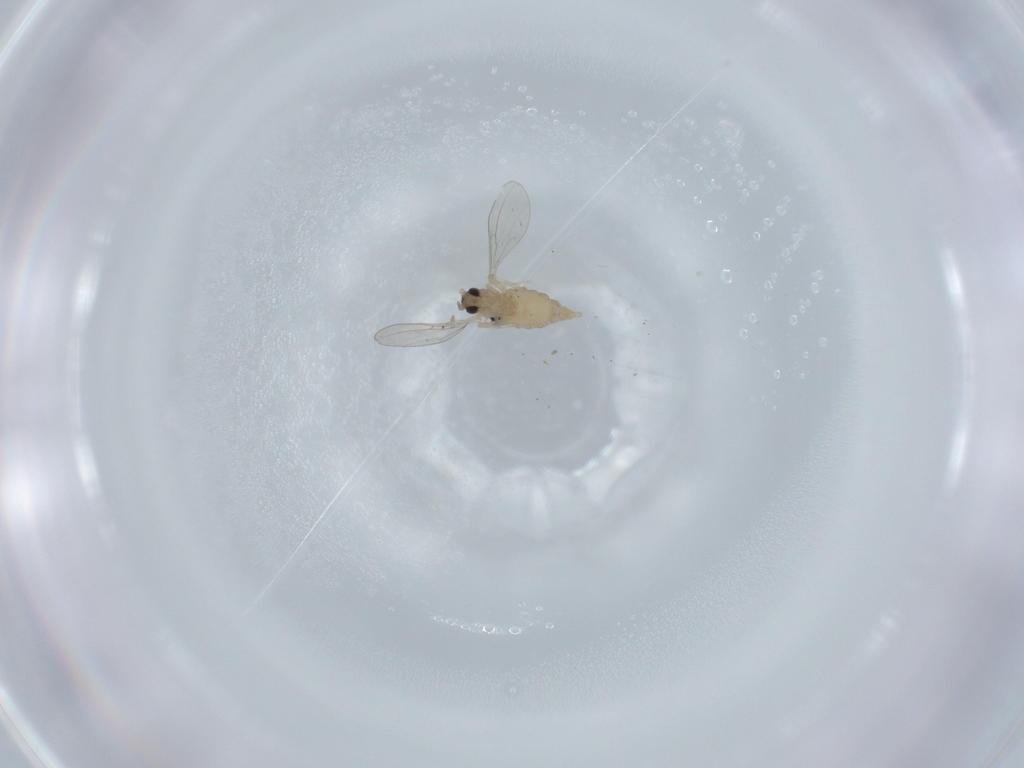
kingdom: Animalia
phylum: Arthropoda
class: Insecta
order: Diptera
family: Cecidomyiidae
